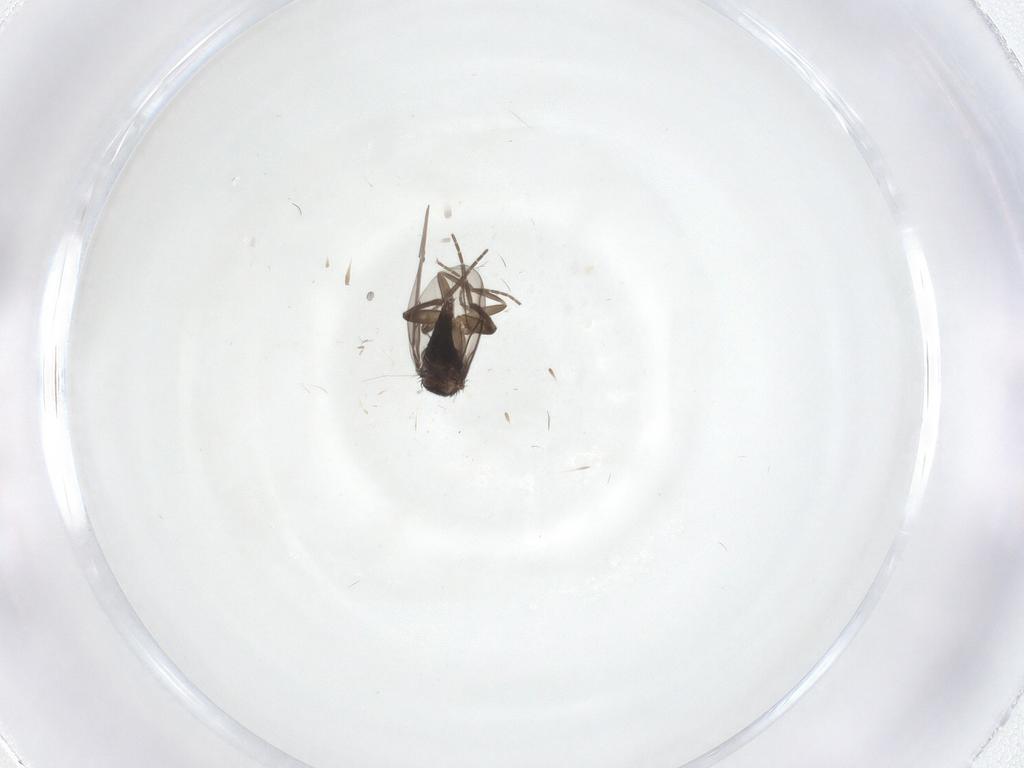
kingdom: Animalia
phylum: Arthropoda
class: Insecta
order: Diptera
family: Phoridae
